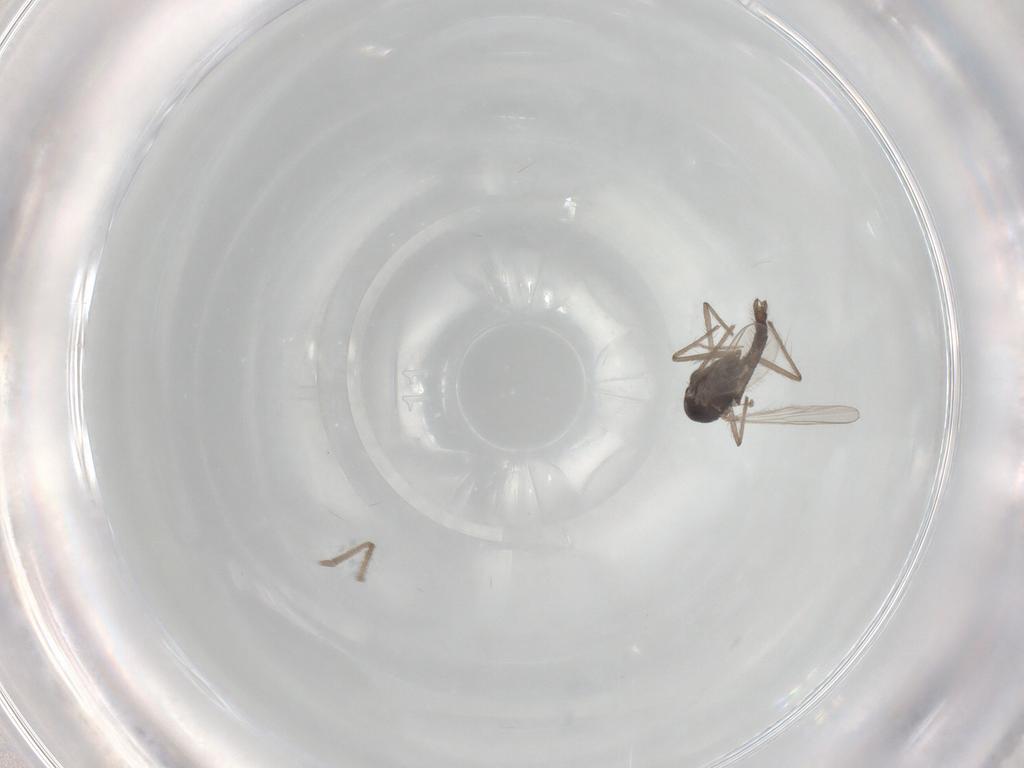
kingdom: Animalia
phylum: Arthropoda
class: Insecta
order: Diptera
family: Chironomidae
